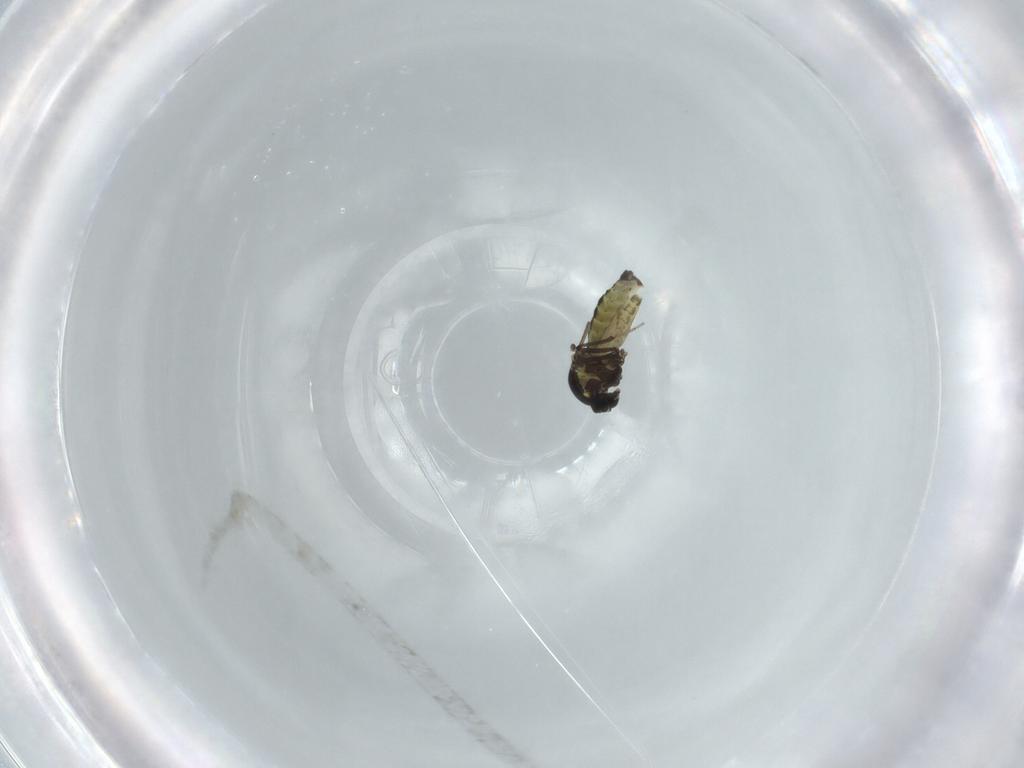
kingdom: Animalia
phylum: Arthropoda
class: Insecta
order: Diptera
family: Ceratopogonidae
